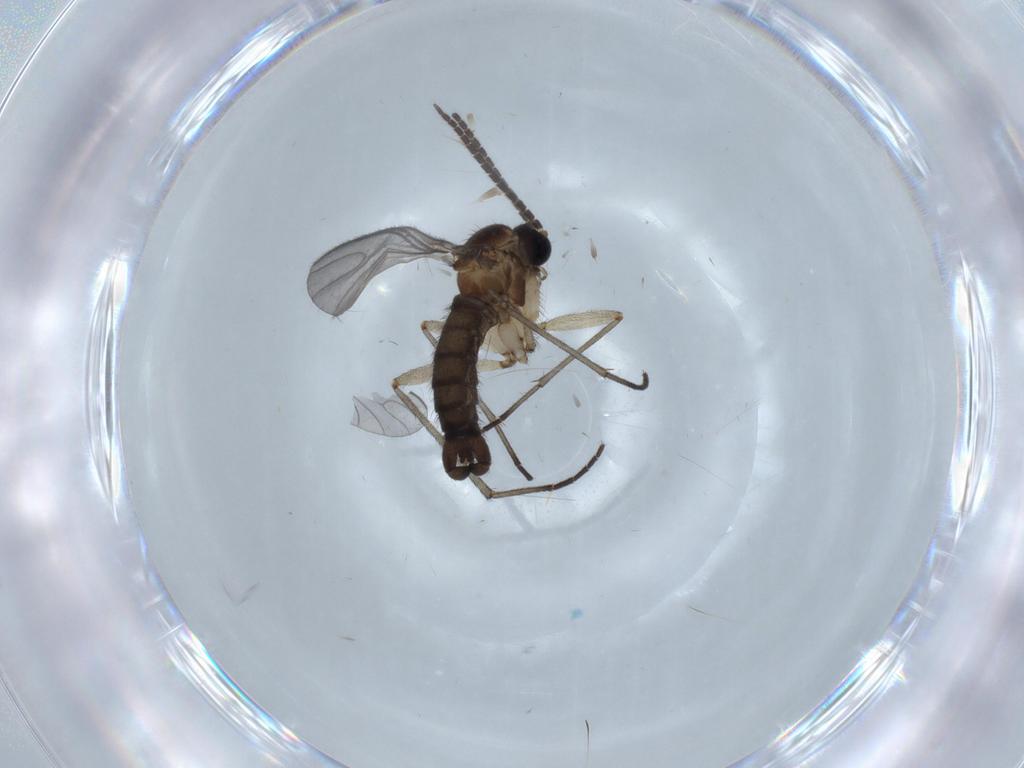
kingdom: Animalia
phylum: Arthropoda
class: Insecta
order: Diptera
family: Sciaridae
